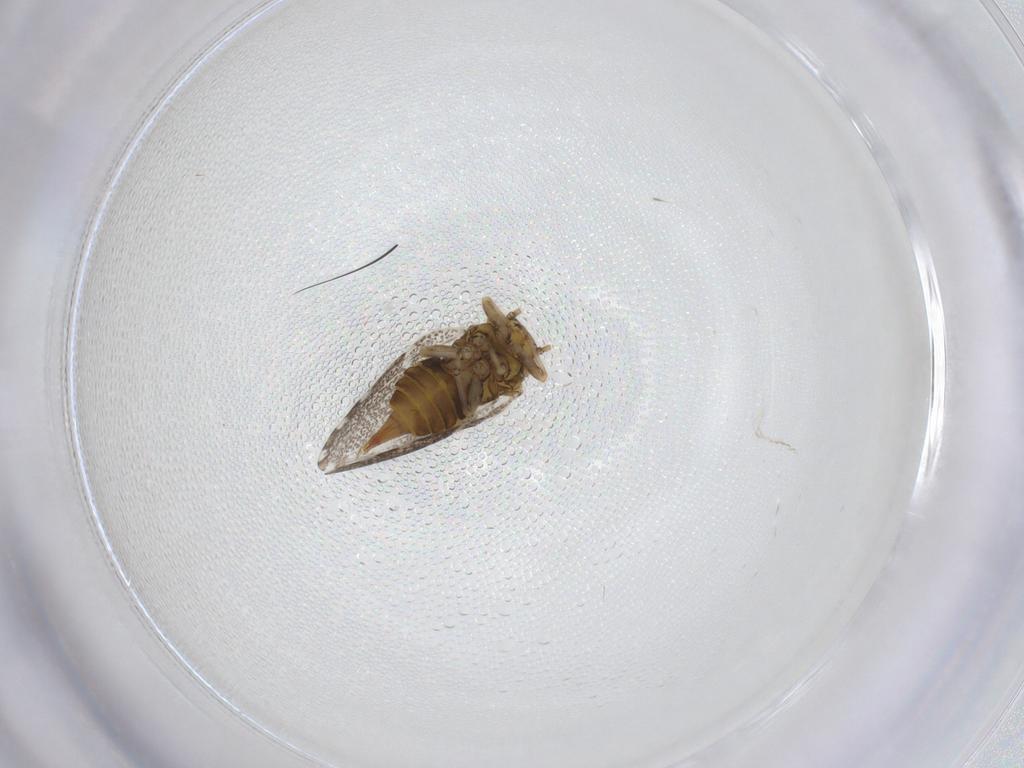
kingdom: Animalia
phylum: Arthropoda
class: Insecta
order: Hemiptera
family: Psylloidea_incertae_sedis
